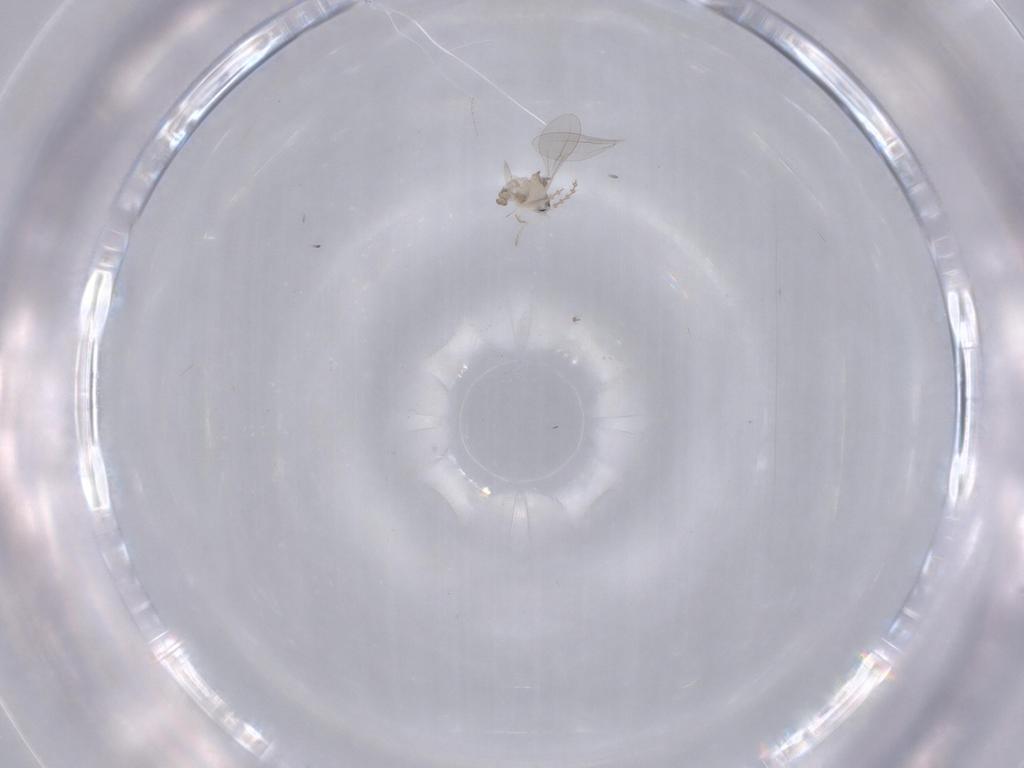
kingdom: Animalia
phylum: Arthropoda
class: Insecta
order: Diptera
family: Cecidomyiidae
